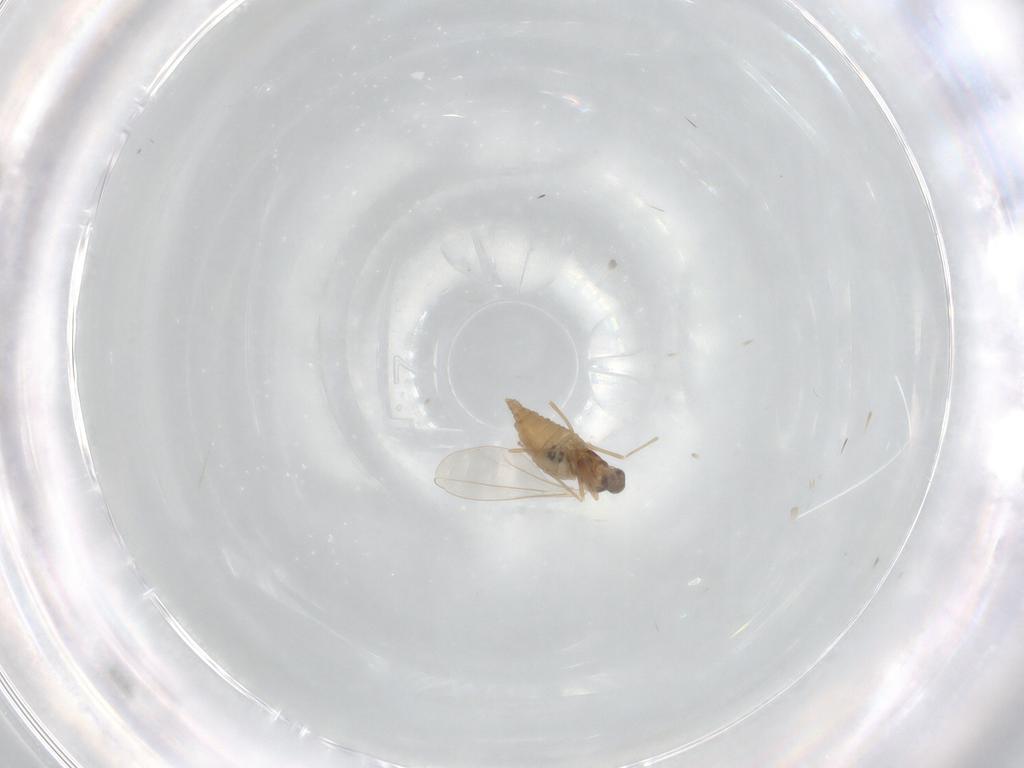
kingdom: Animalia
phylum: Arthropoda
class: Insecta
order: Diptera
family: Cecidomyiidae
